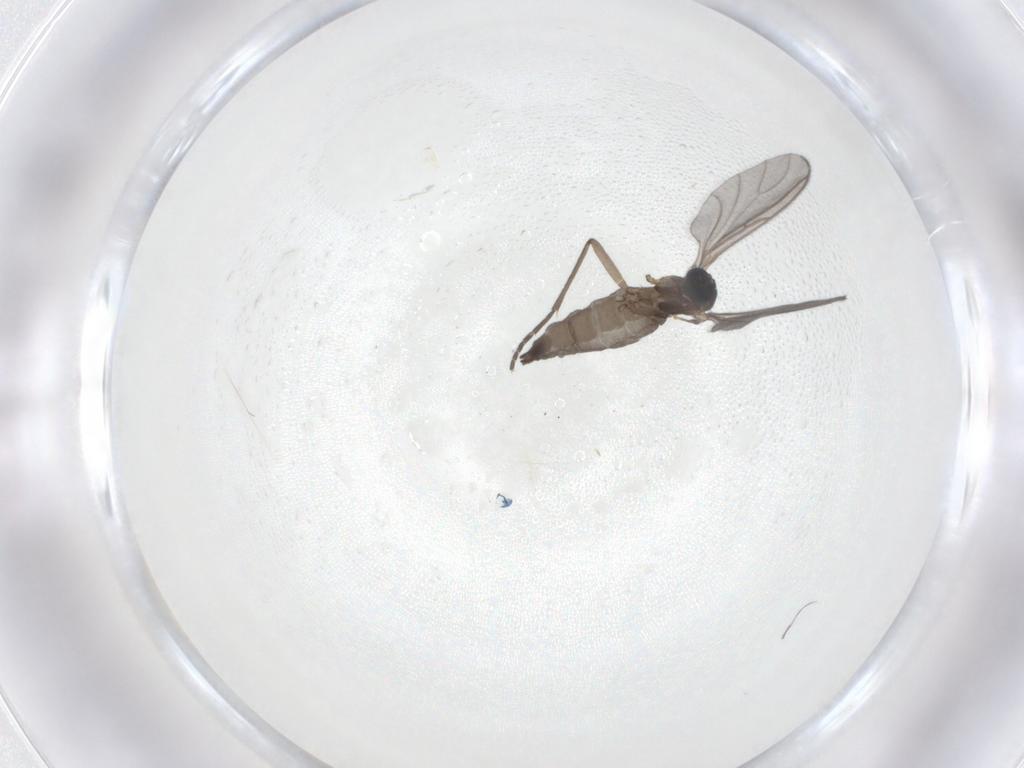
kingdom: Animalia
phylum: Arthropoda
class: Insecta
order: Diptera
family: Sciaridae
